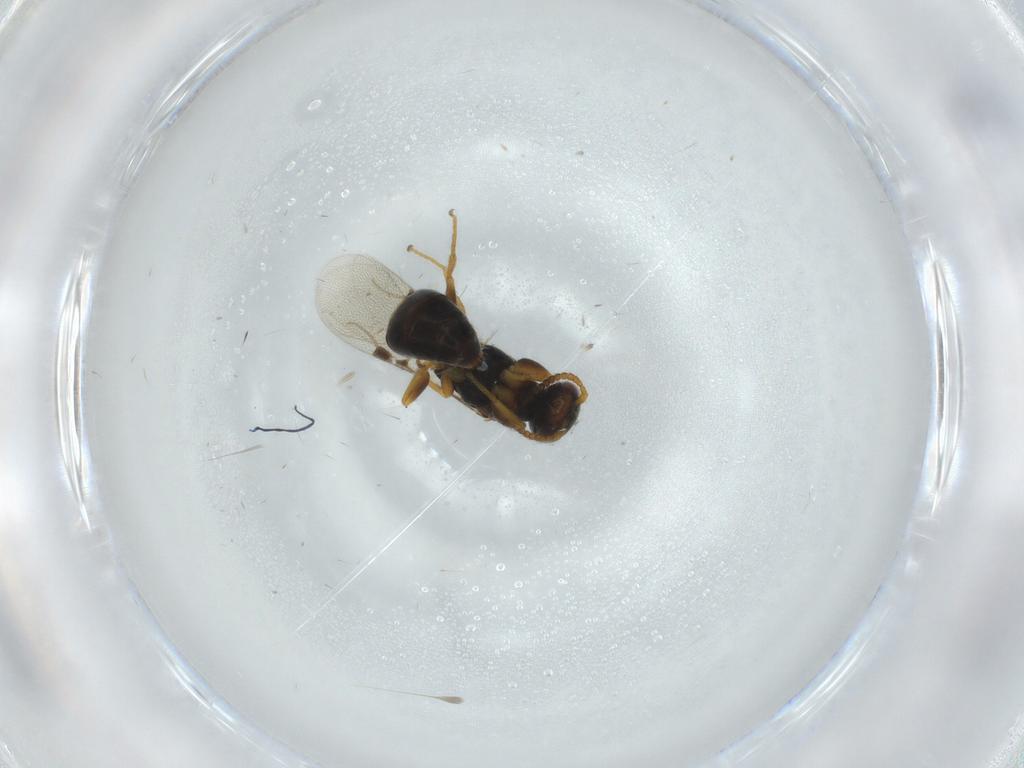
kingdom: Animalia
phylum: Arthropoda
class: Insecta
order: Hymenoptera
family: Bethylidae
